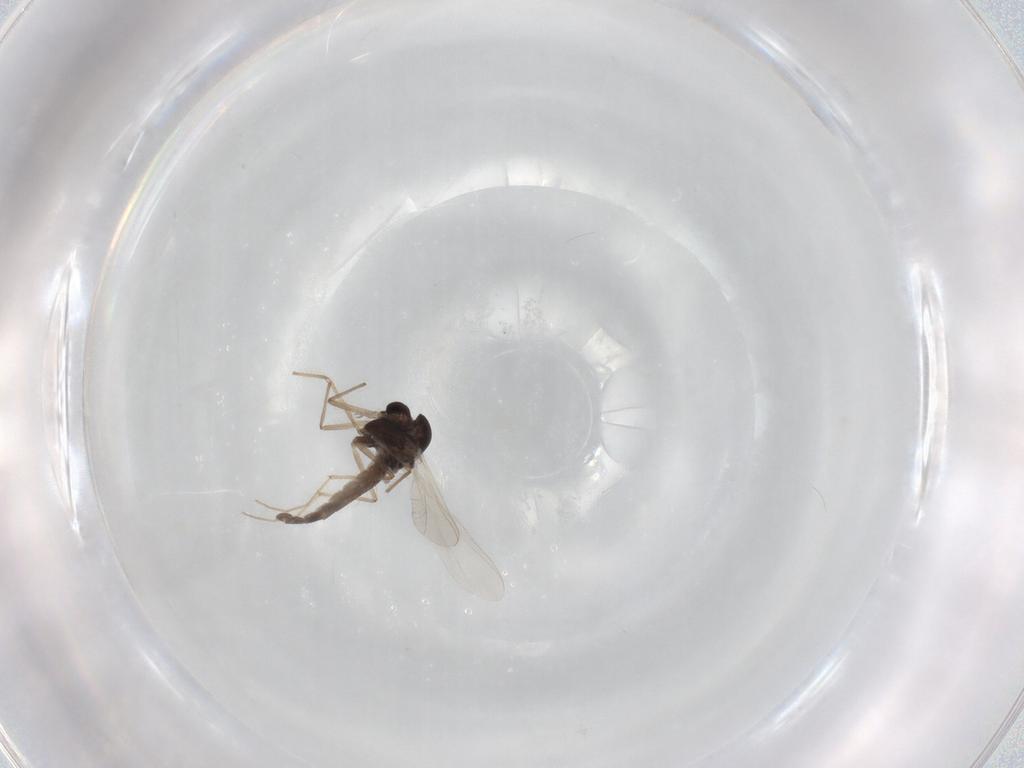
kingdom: Animalia
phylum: Arthropoda
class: Insecta
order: Diptera
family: Chironomidae
